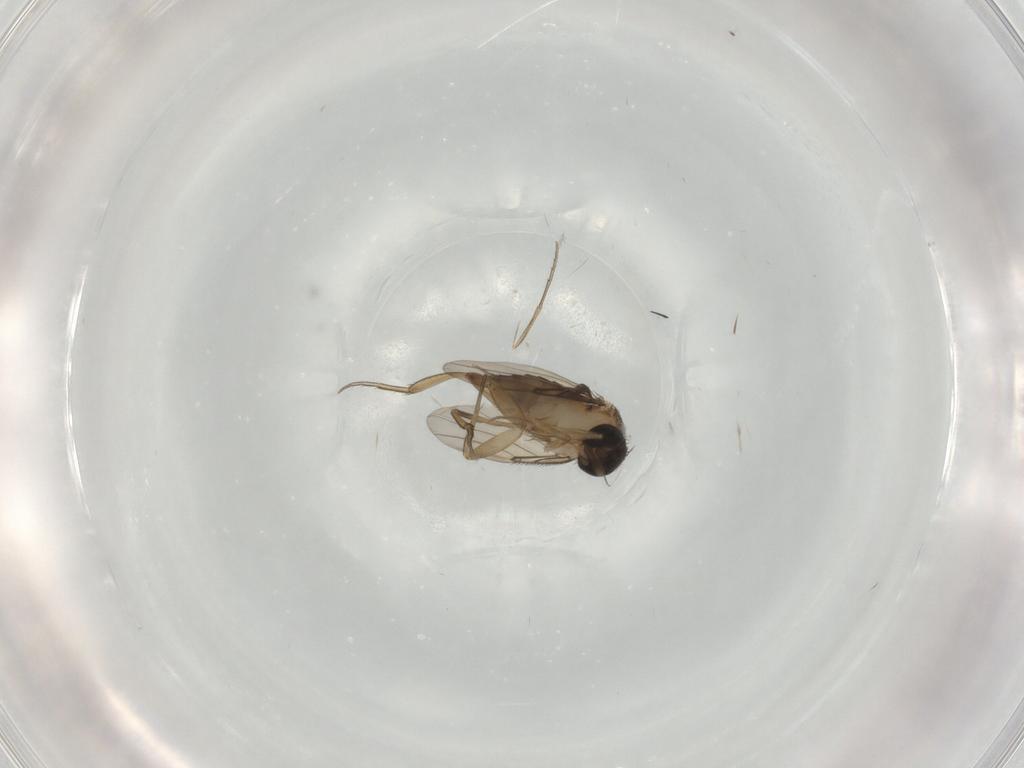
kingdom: Animalia
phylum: Arthropoda
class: Insecta
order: Diptera
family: Phoridae
